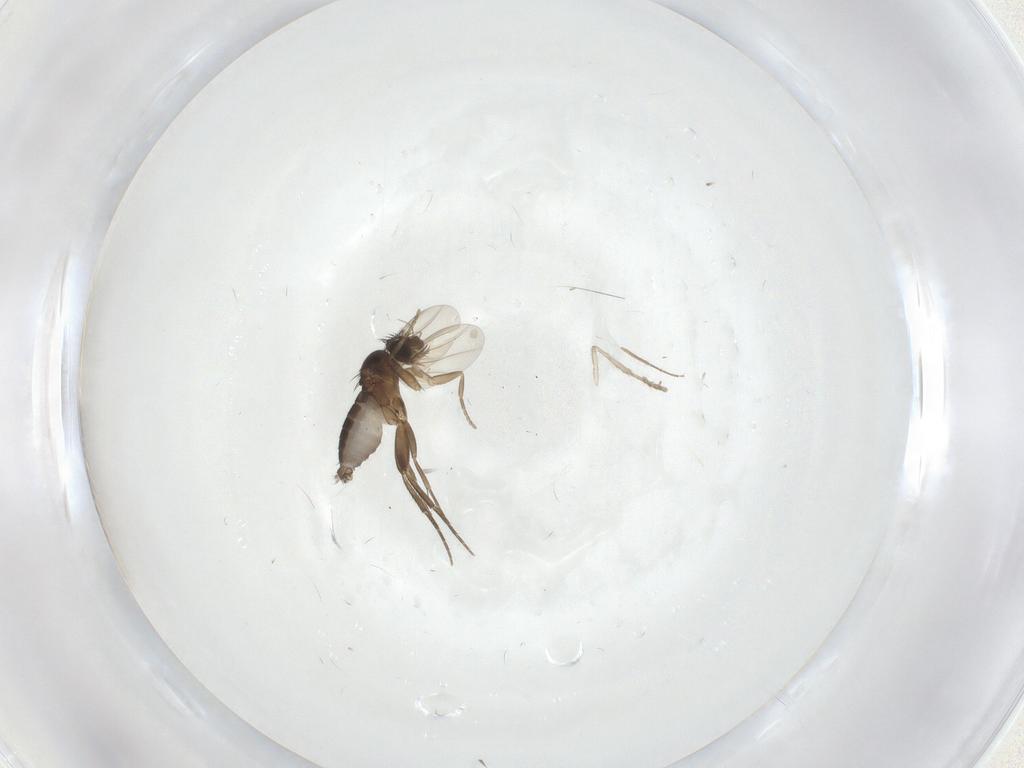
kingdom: Animalia
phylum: Arthropoda
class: Insecta
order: Diptera
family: Phoridae
